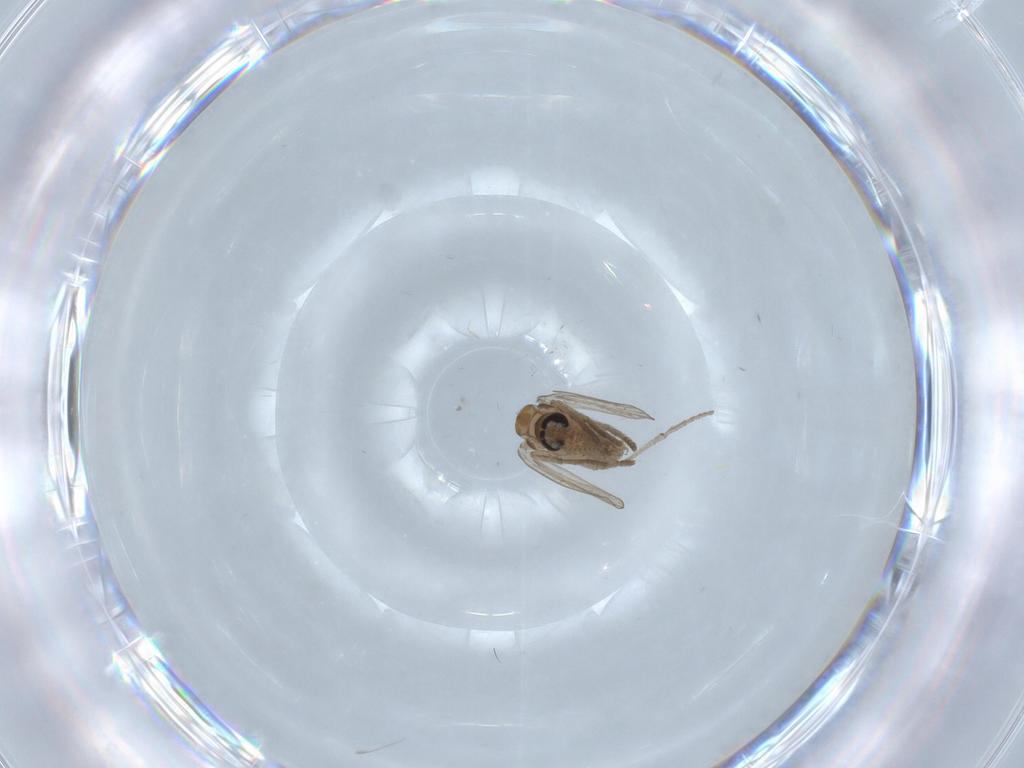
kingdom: Animalia
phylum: Arthropoda
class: Insecta
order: Diptera
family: Psychodidae
